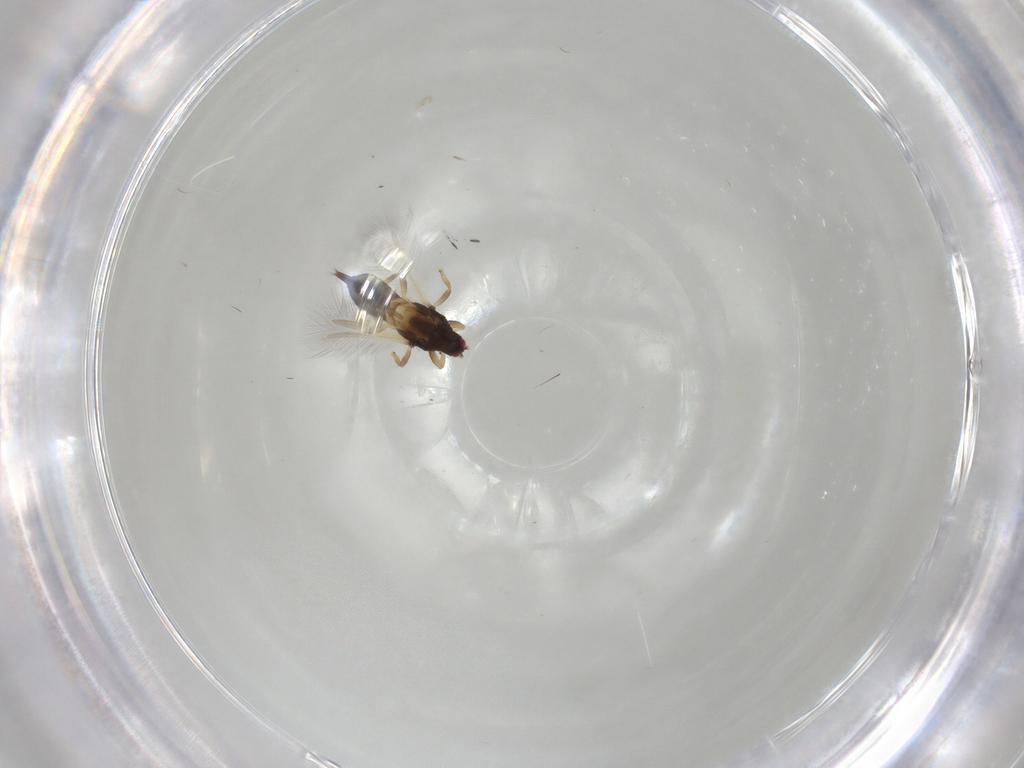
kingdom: Animalia
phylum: Arthropoda
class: Insecta
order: Thysanoptera
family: Phlaeothripidae
